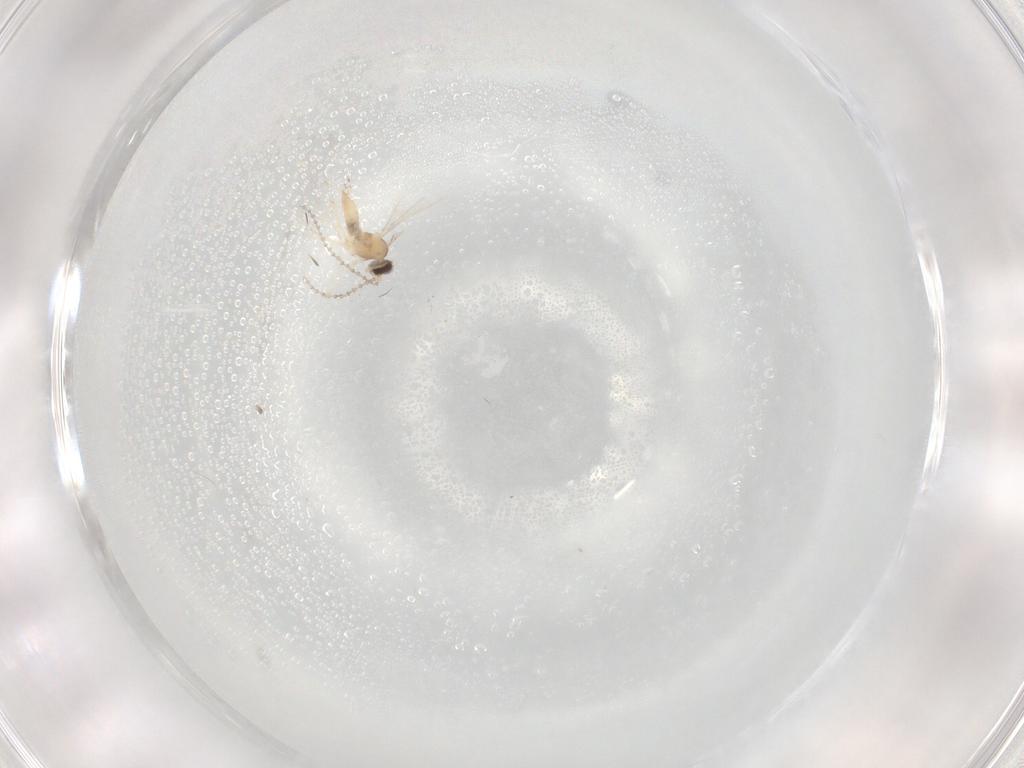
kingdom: Animalia
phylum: Arthropoda
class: Insecta
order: Diptera
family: Cecidomyiidae
